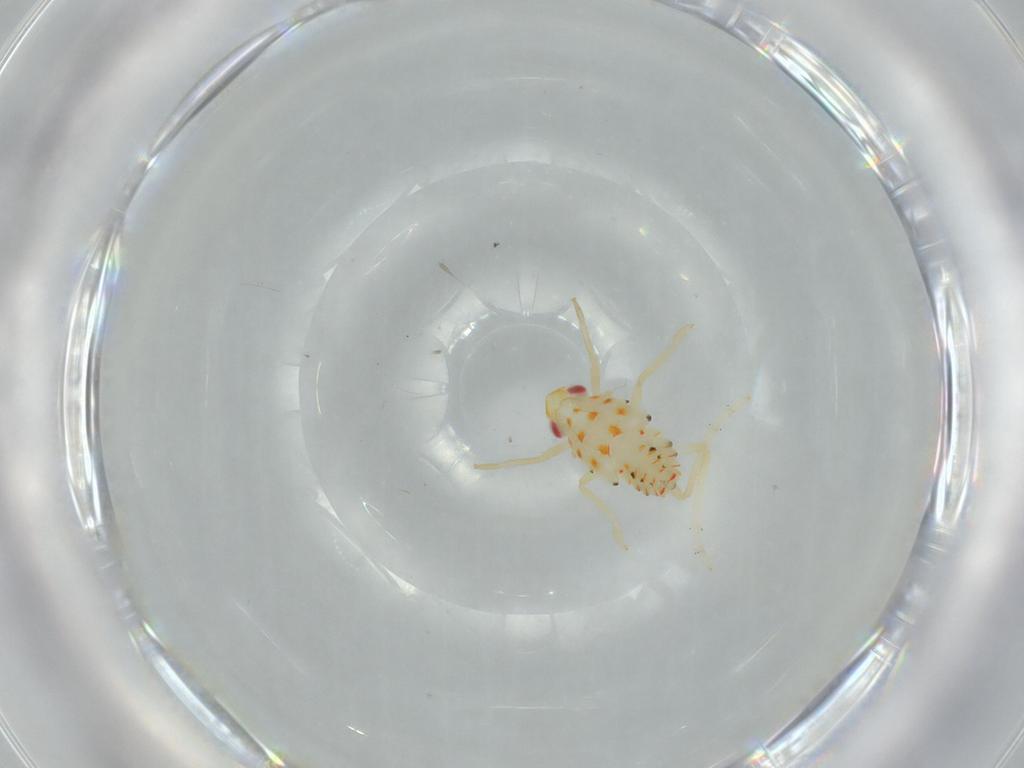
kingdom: Animalia
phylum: Arthropoda
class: Insecta
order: Hemiptera
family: Tropiduchidae
